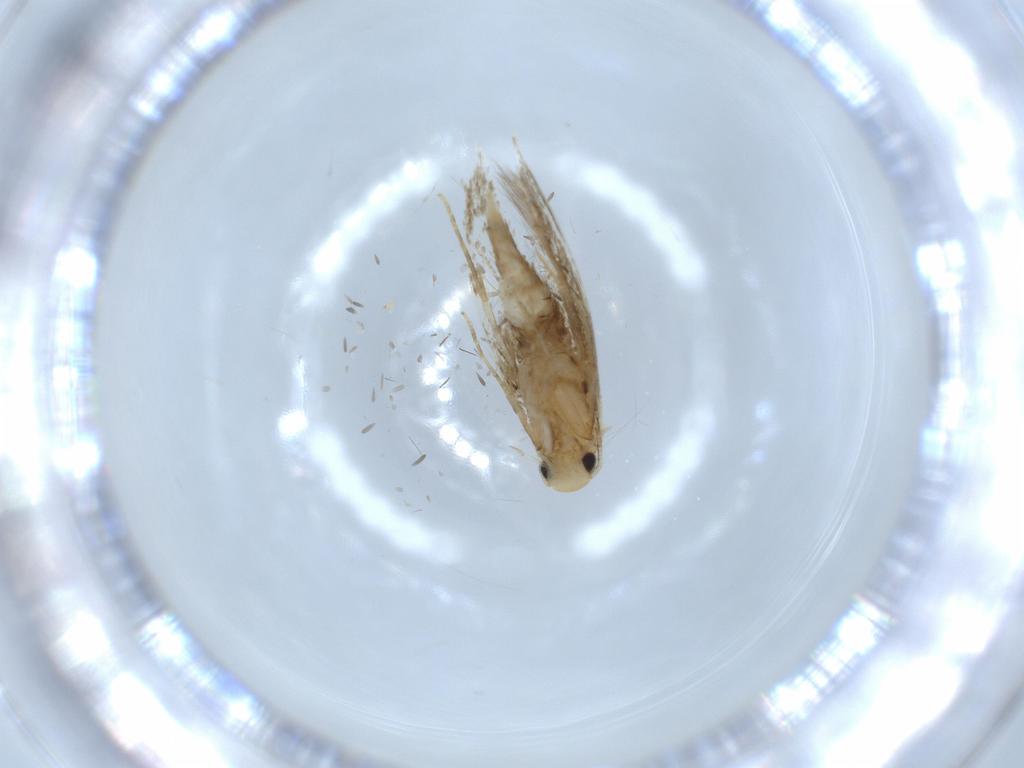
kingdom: Animalia
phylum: Arthropoda
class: Insecta
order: Lepidoptera
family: Tineidae
